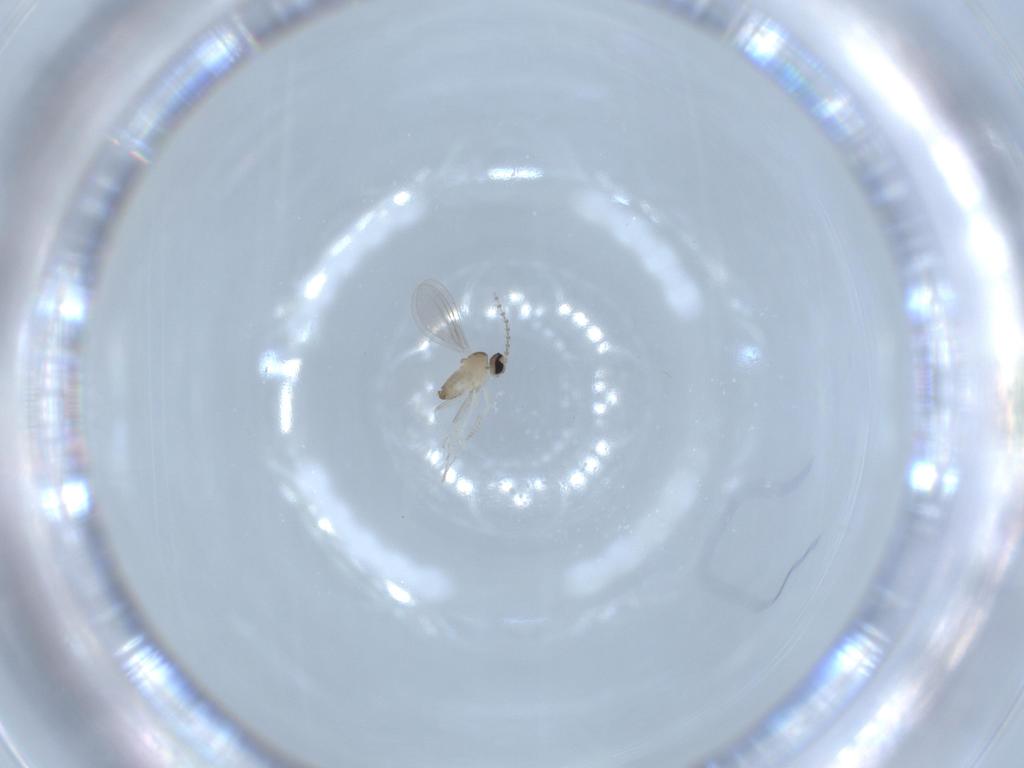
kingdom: Animalia
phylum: Arthropoda
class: Insecta
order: Diptera
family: Cecidomyiidae
